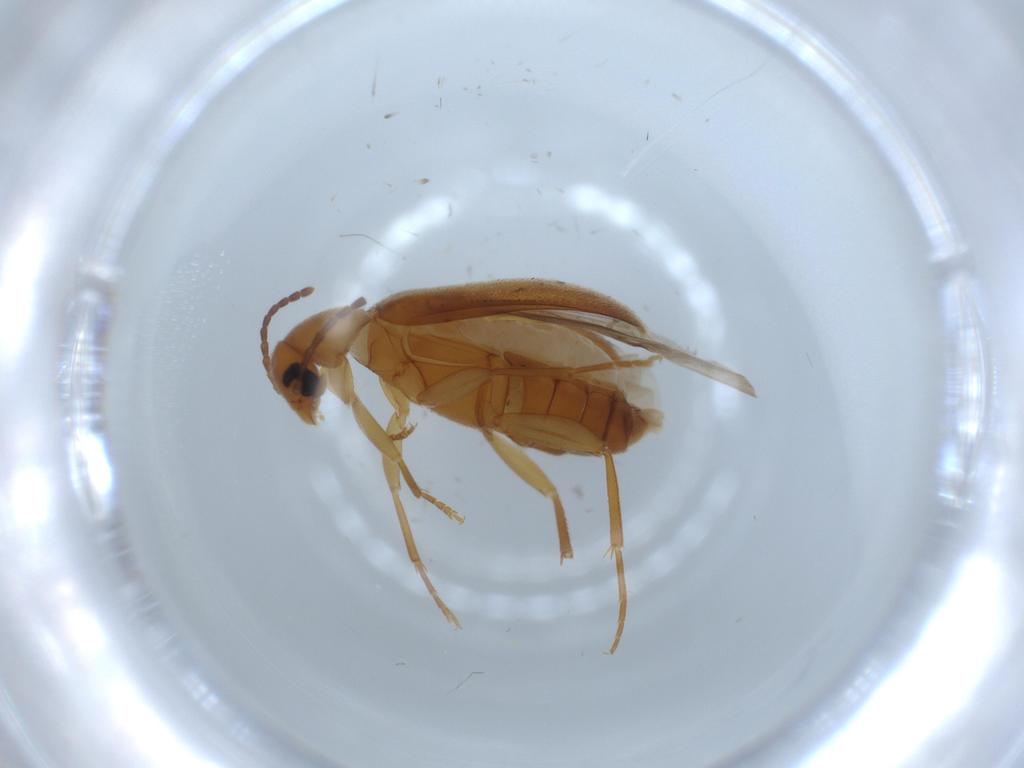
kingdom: Animalia
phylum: Arthropoda
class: Insecta
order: Coleoptera
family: Scraptiidae
